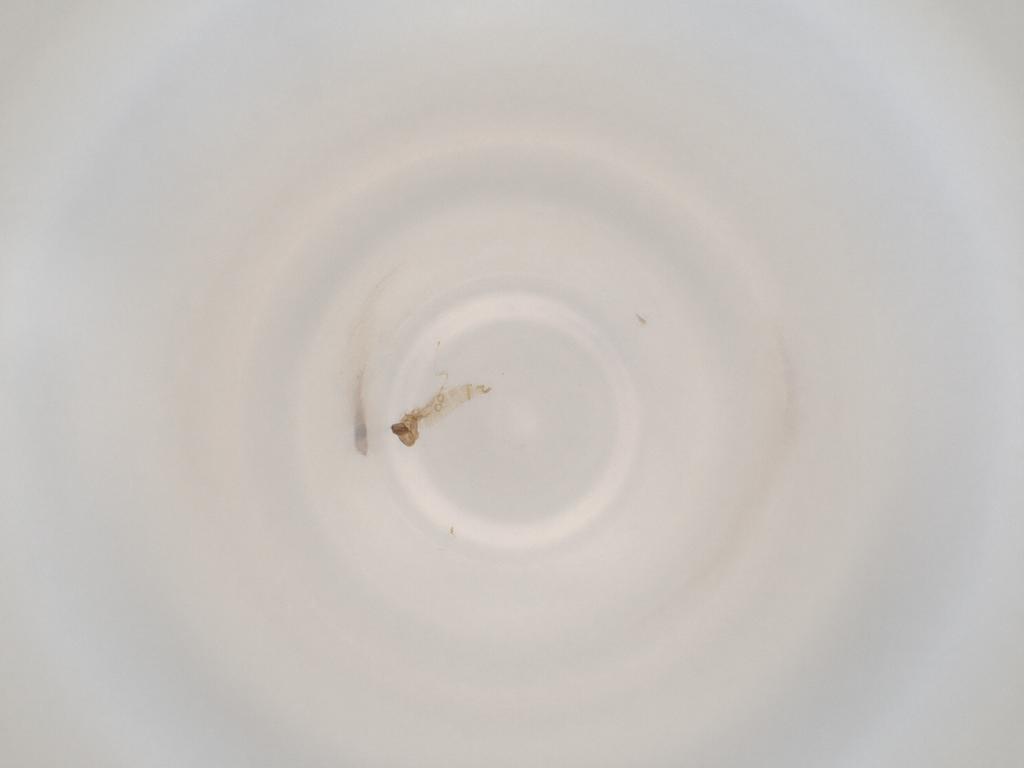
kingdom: Animalia
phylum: Arthropoda
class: Insecta
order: Diptera
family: Cecidomyiidae
